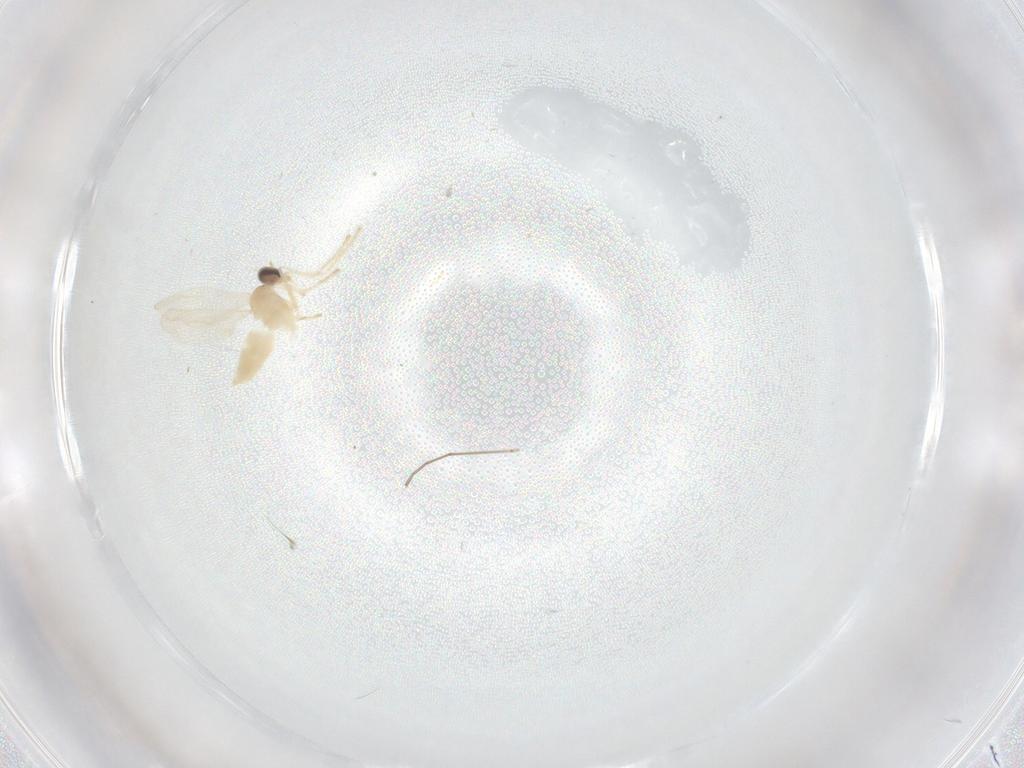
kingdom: Animalia
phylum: Arthropoda
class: Insecta
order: Diptera
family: Cecidomyiidae
